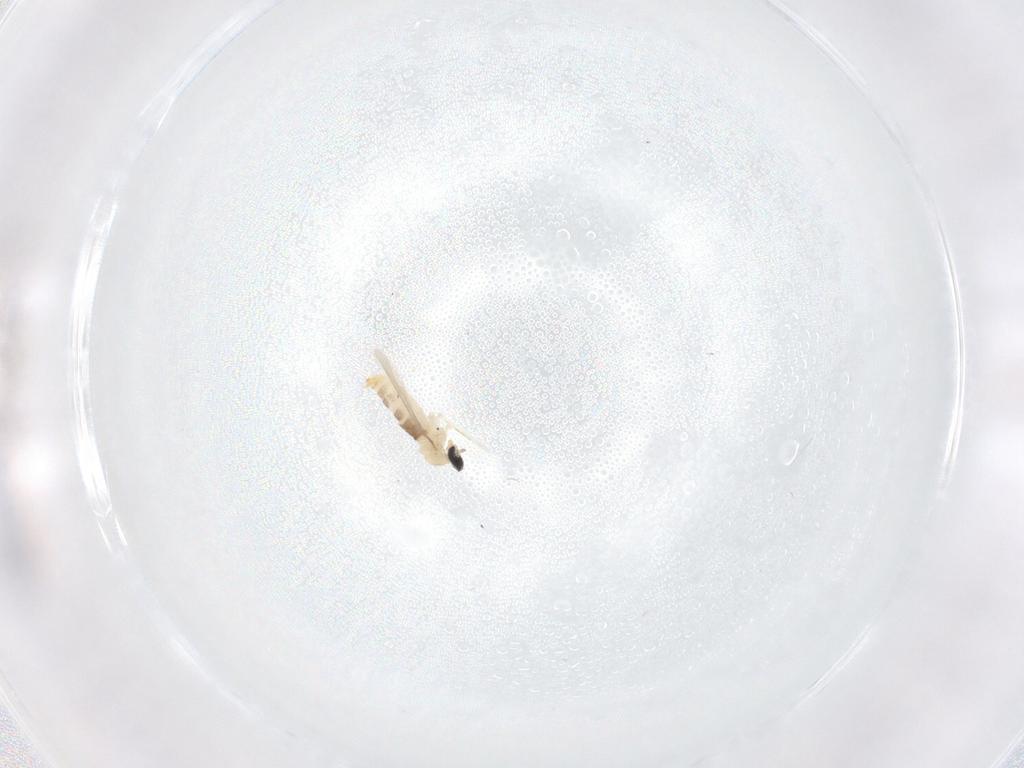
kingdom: Animalia
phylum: Arthropoda
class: Insecta
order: Diptera
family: Cecidomyiidae
